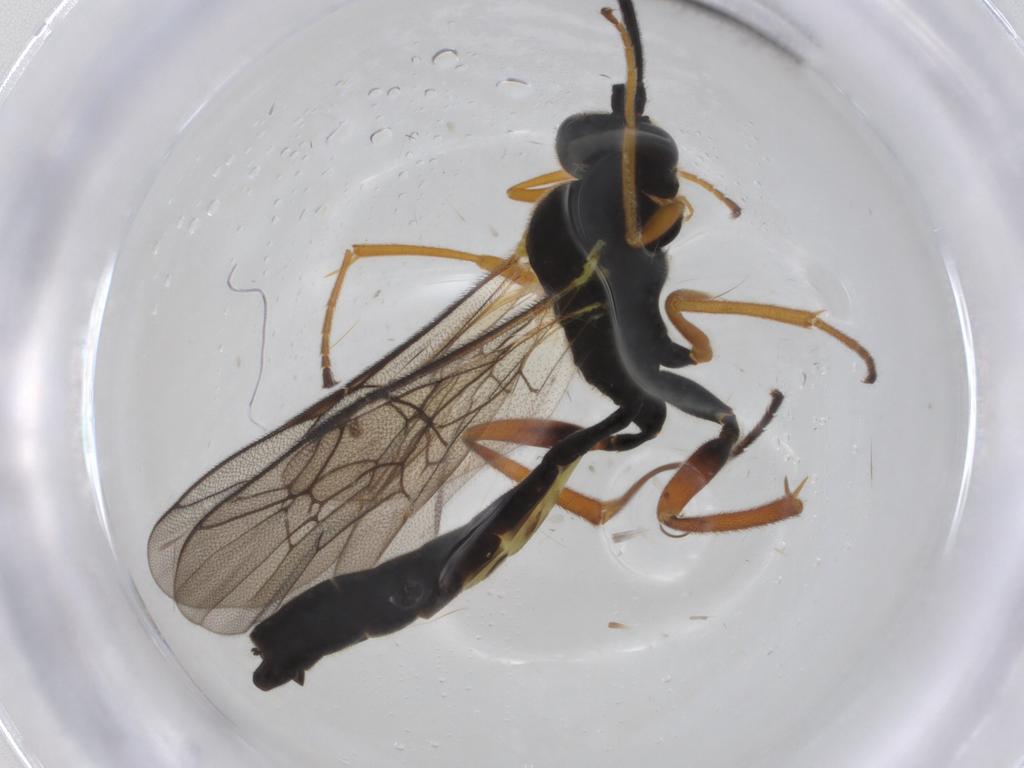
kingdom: Animalia
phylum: Arthropoda
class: Insecta
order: Hymenoptera
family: Ichneumonidae
